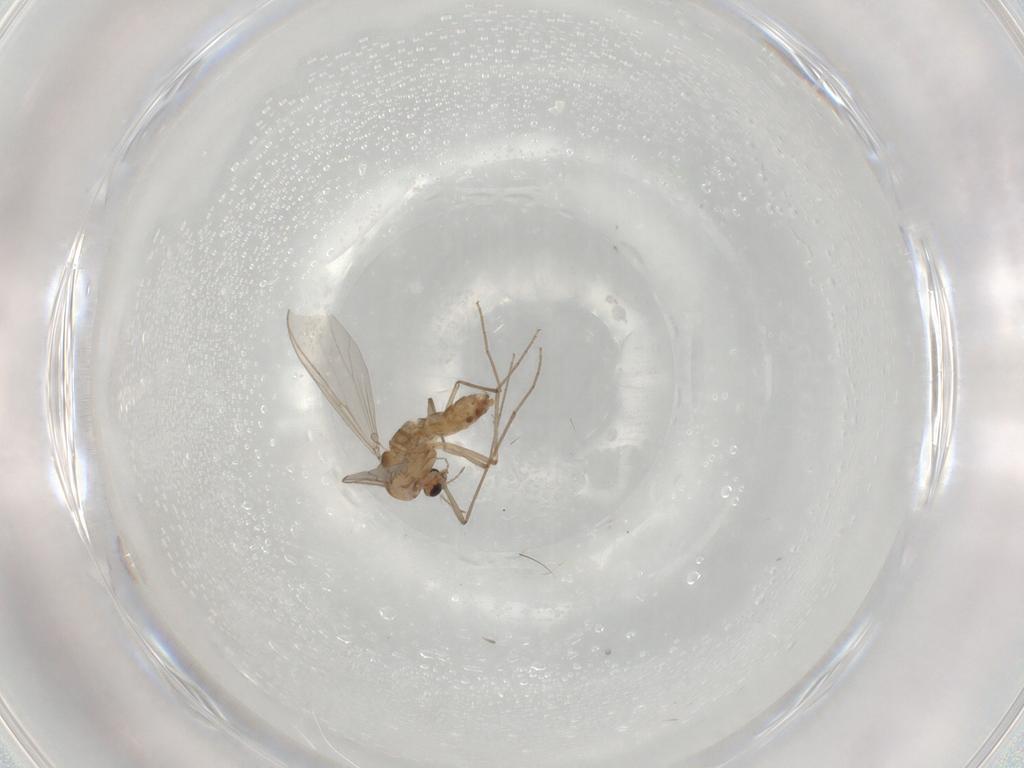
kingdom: Animalia
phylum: Arthropoda
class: Insecta
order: Diptera
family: Chironomidae
